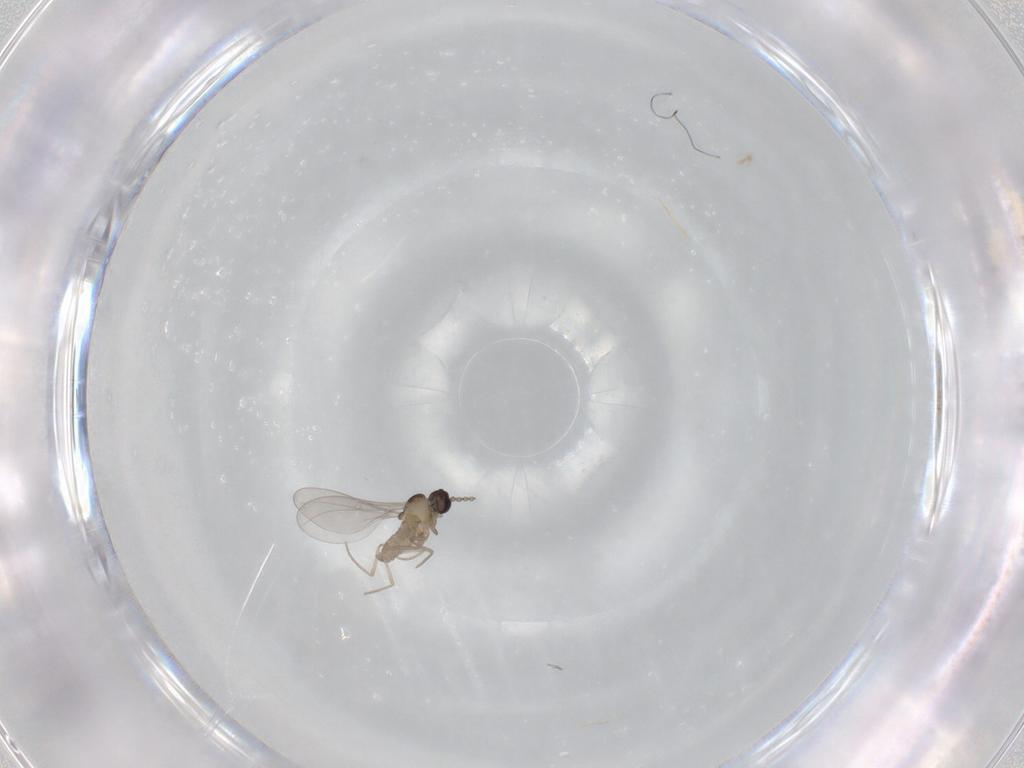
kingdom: Animalia
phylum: Arthropoda
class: Insecta
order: Diptera
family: Cecidomyiidae
